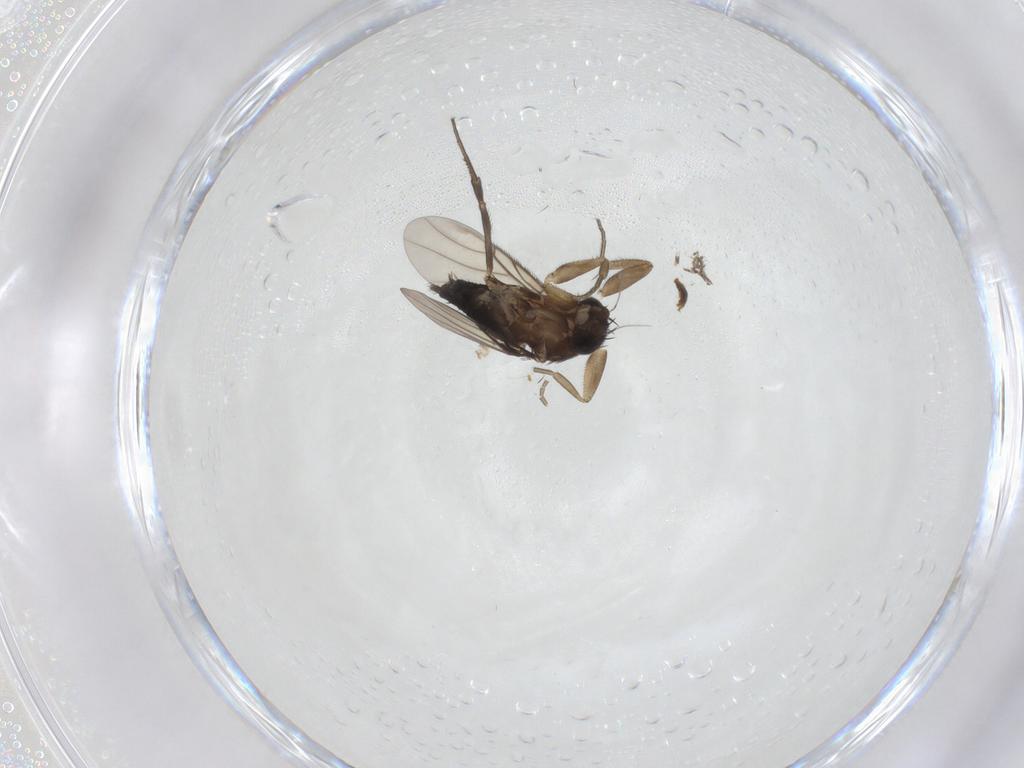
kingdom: Animalia
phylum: Arthropoda
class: Insecta
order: Diptera
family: Phoridae
